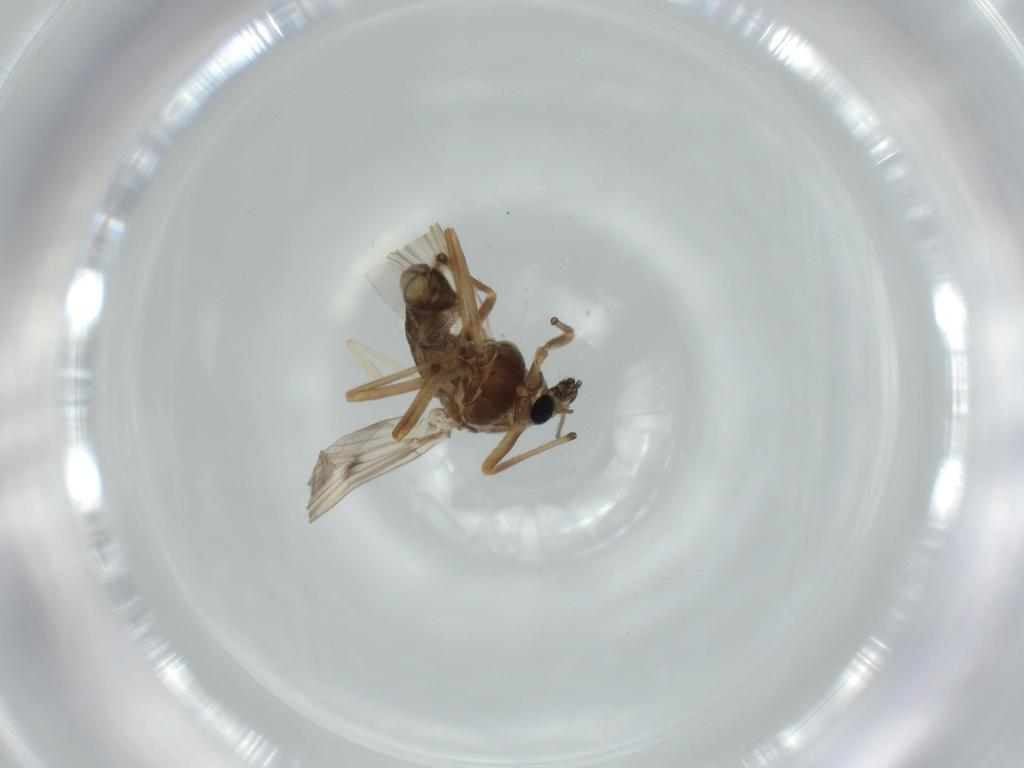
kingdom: Animalia
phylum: Arthropoda
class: Insecta
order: Diptera
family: Chironomidae
